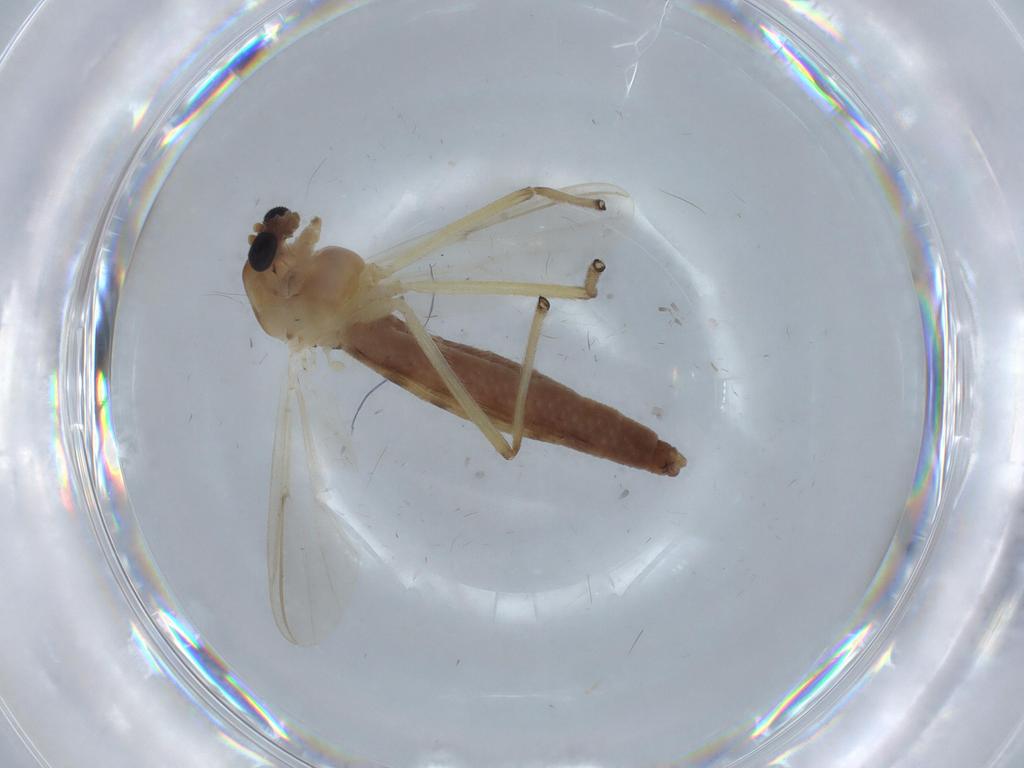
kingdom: Animalia
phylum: Arthropoda
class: Insecta
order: Diptera
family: Chironomidae
